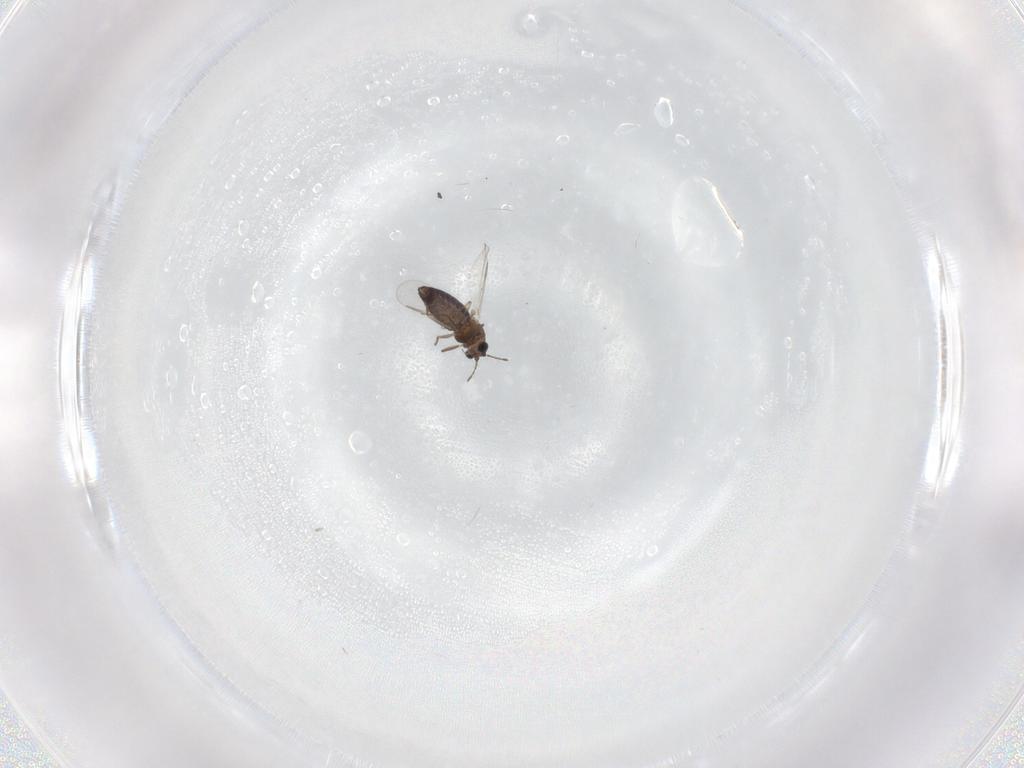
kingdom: Animalia
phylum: Arthropoda
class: Insecta
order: Diptera
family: Chironomidae
